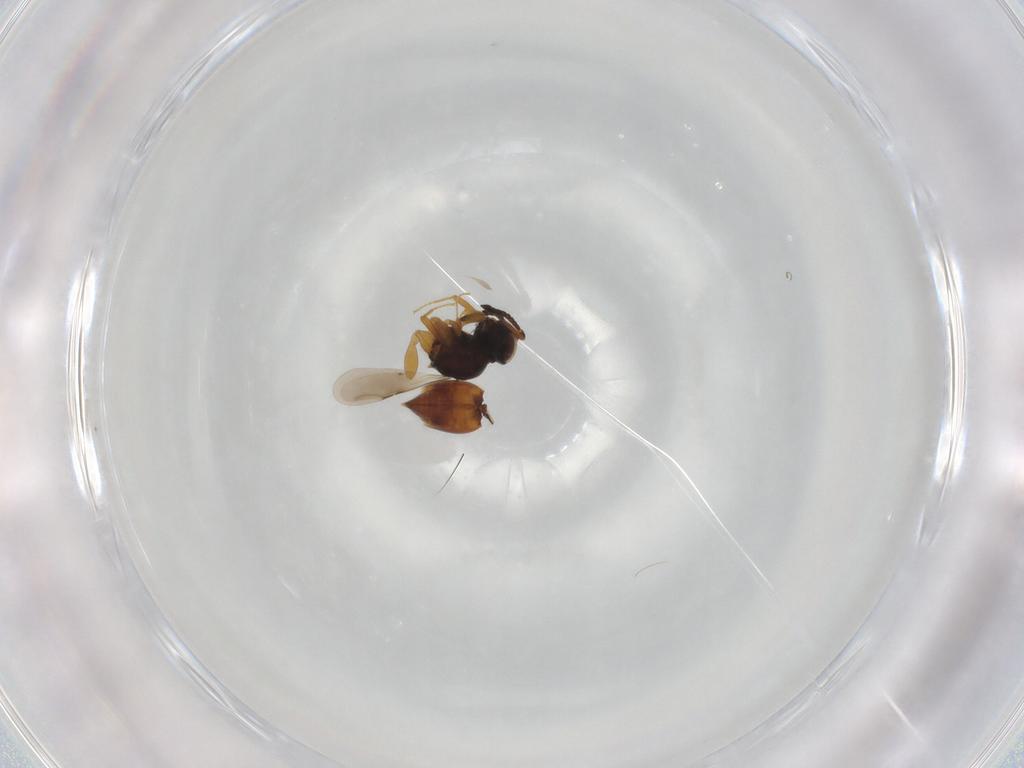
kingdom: Animalia
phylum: Arthropoda
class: Insecta
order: Hymenoptera
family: Ceraphronidae
